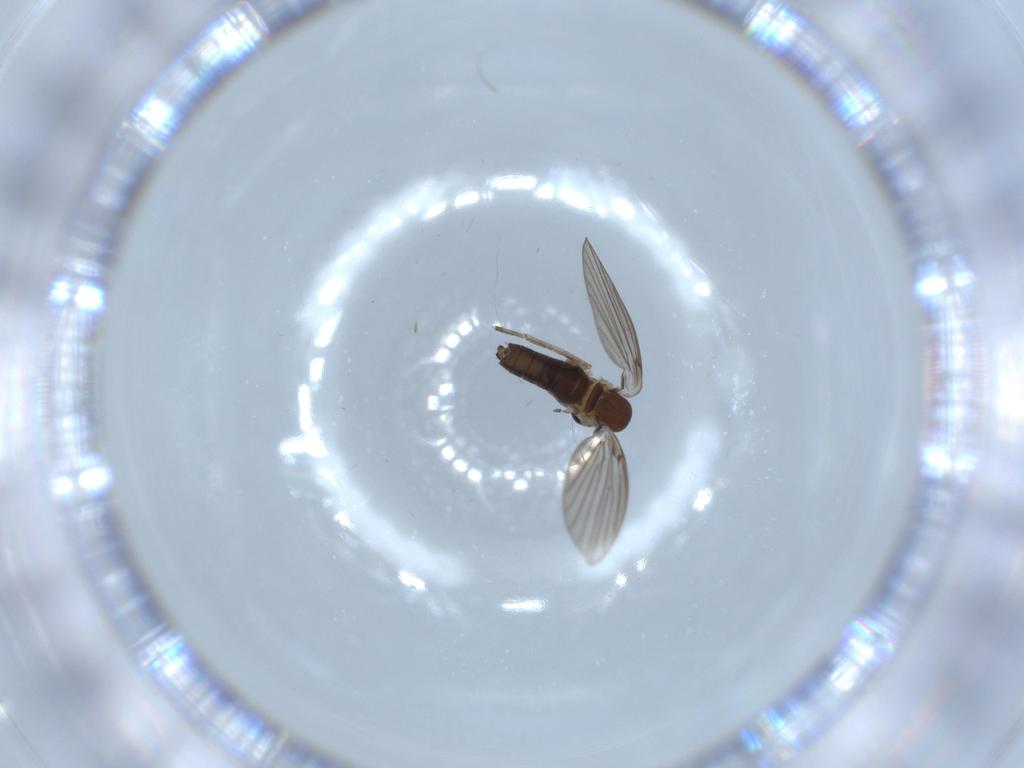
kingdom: Animalia
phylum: Arthropoda
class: Insecta
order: Diptera
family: Psychodidae
